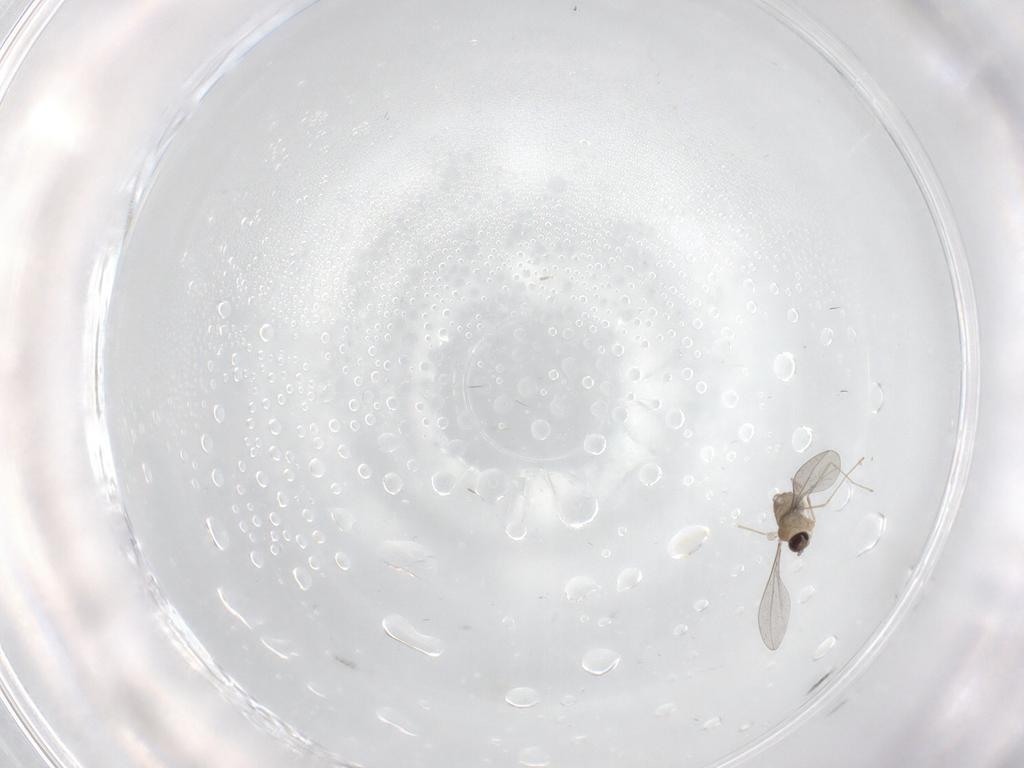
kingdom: Animalia
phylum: Arthropoda
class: Insecta
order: Diptera
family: Cecidomyiidae
